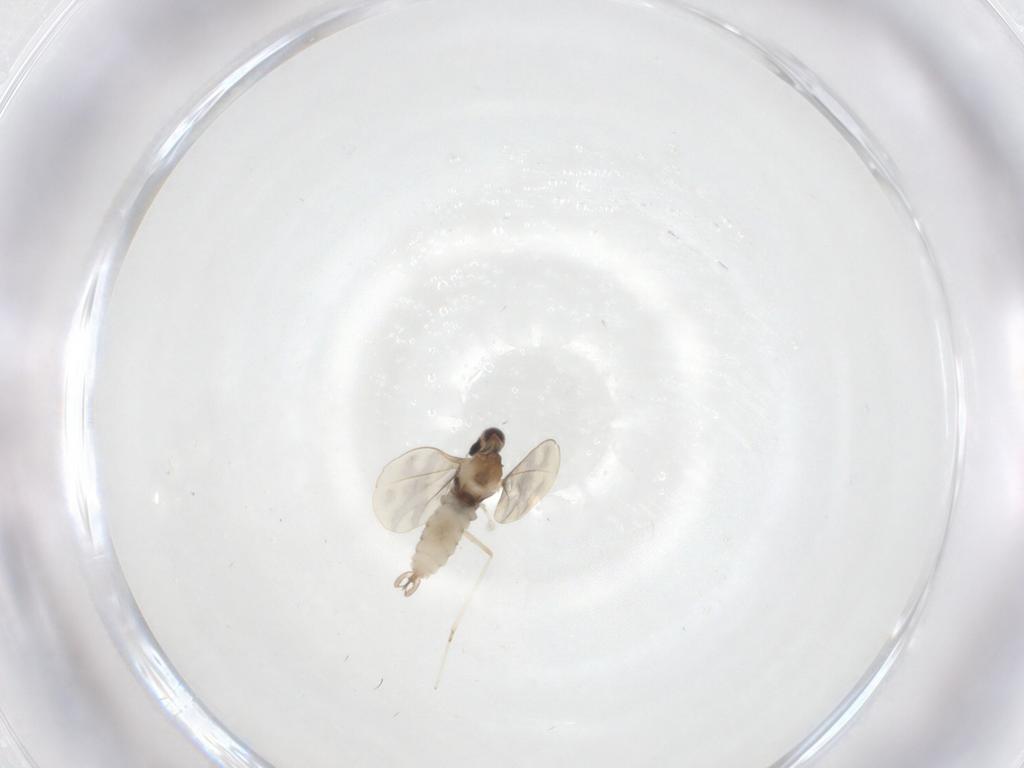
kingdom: Animalia
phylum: Arthropoda
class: Insecta
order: Diptera
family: Cecidomyiidae
